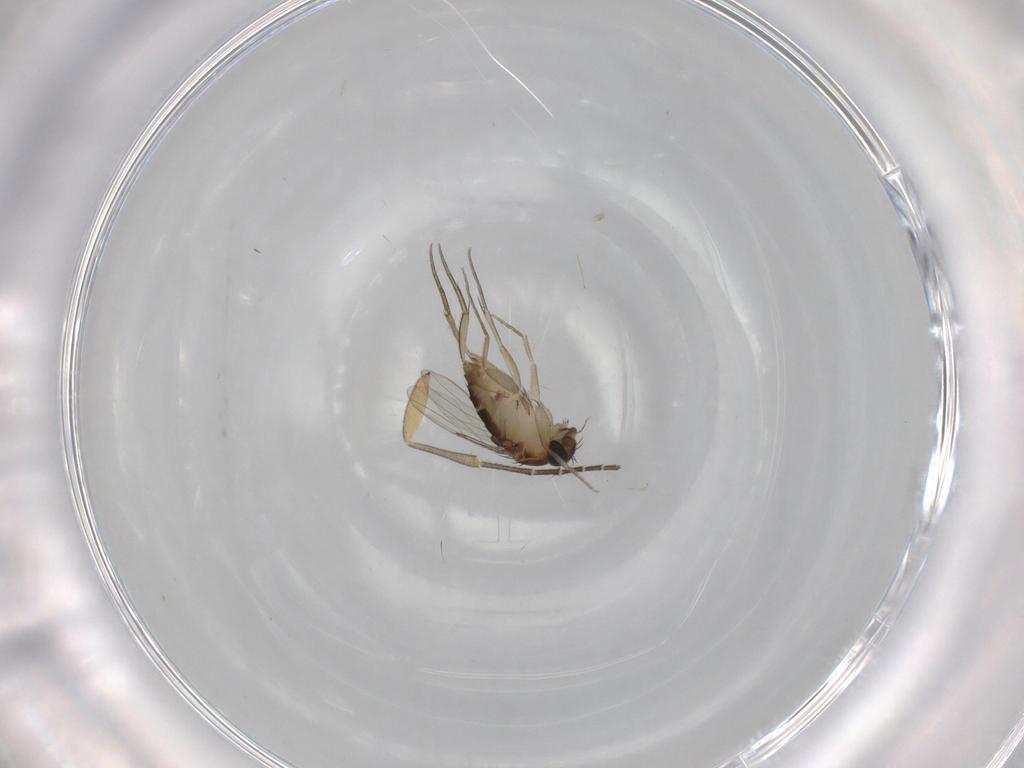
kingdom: Animalia
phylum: Arthropoda
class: Insecta
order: Diptera
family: Phoridae
